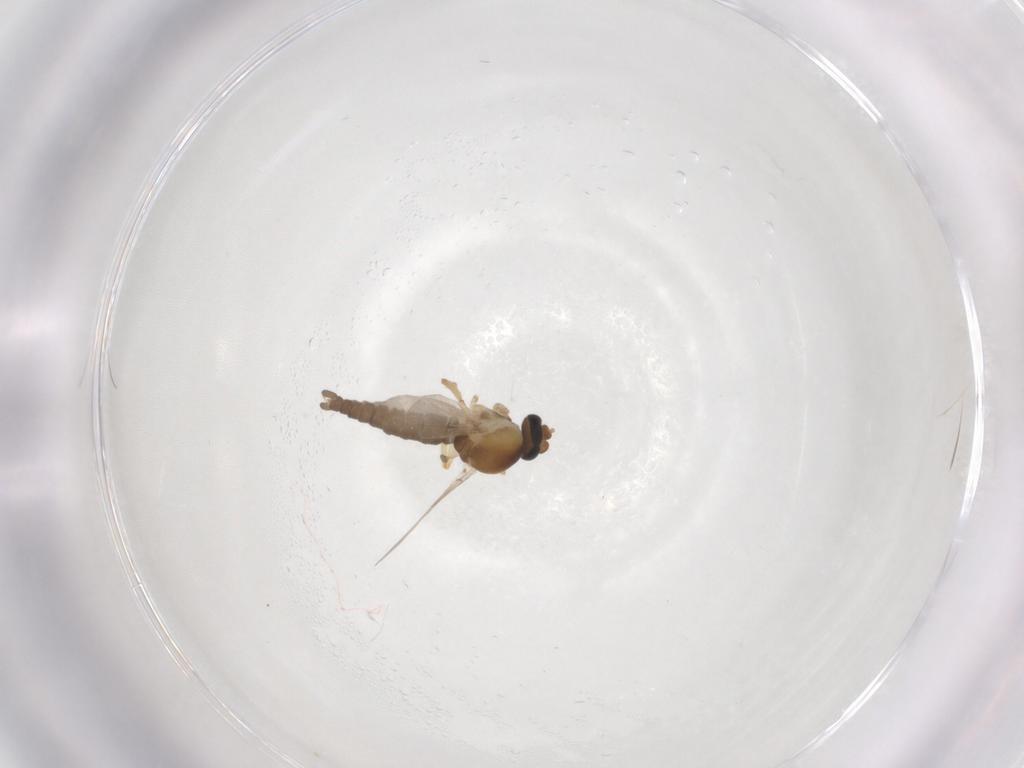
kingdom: Animalia
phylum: Arthropoda
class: Insecta
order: Diptera
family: Ceratopogonidae
